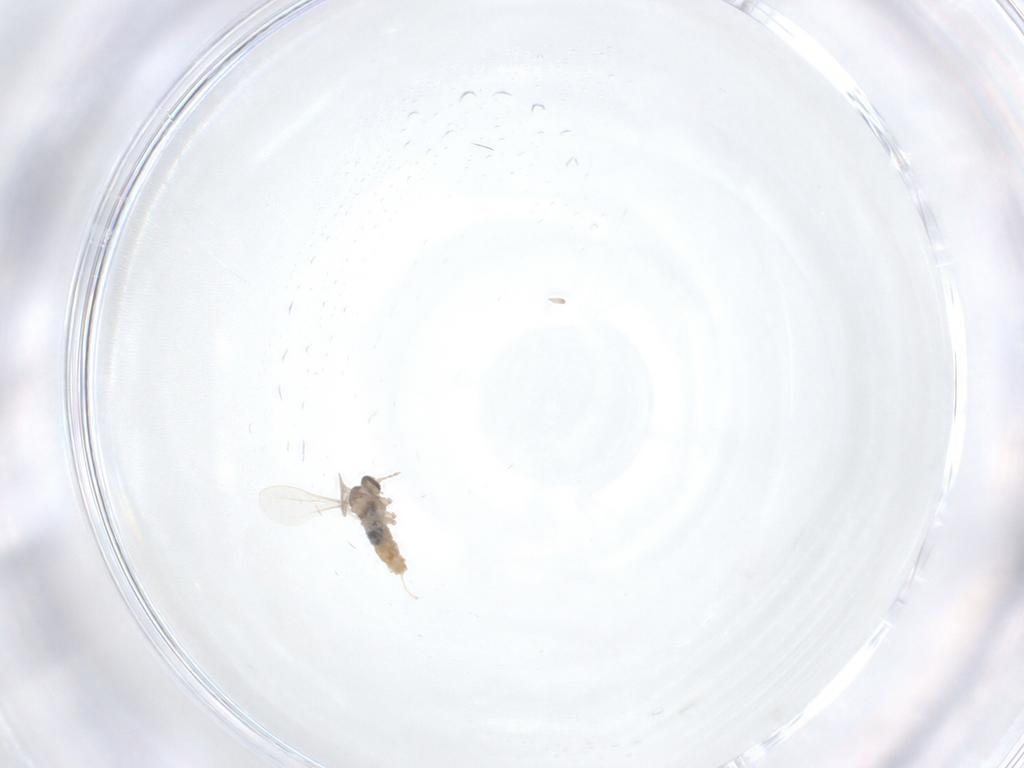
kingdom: Animalia
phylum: Arthropoda
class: Insecta
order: Diptera
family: Cecidomyiidae
